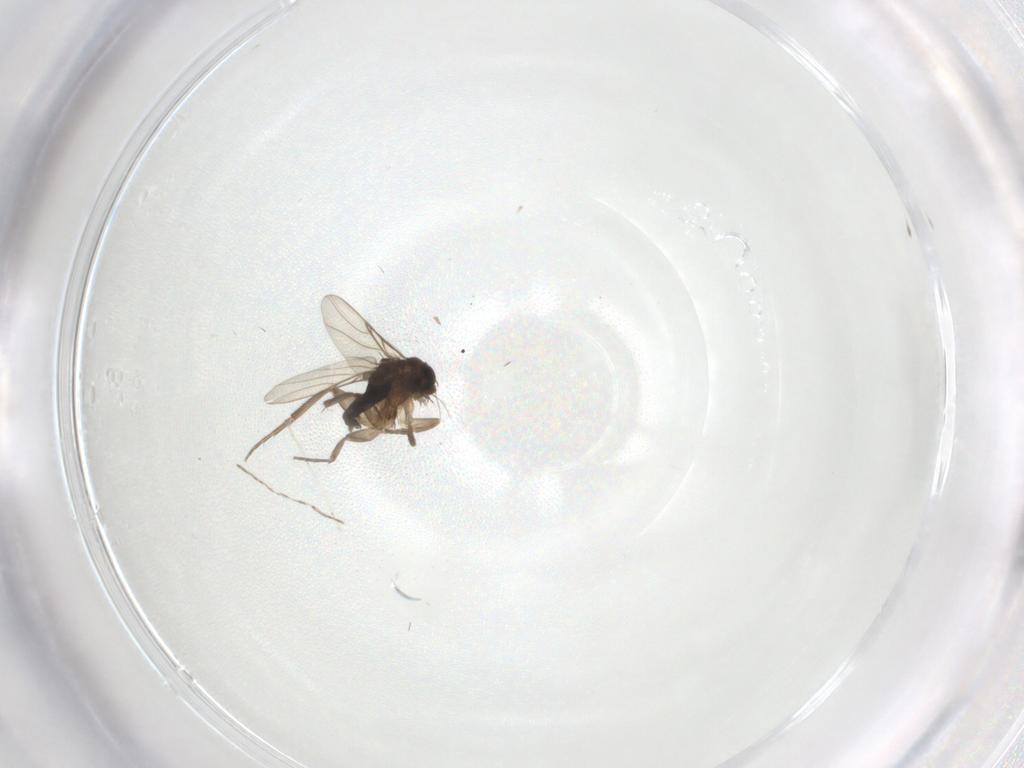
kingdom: Animalia
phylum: Arthropoda
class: Insecta
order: Diptera
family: Phoridae
